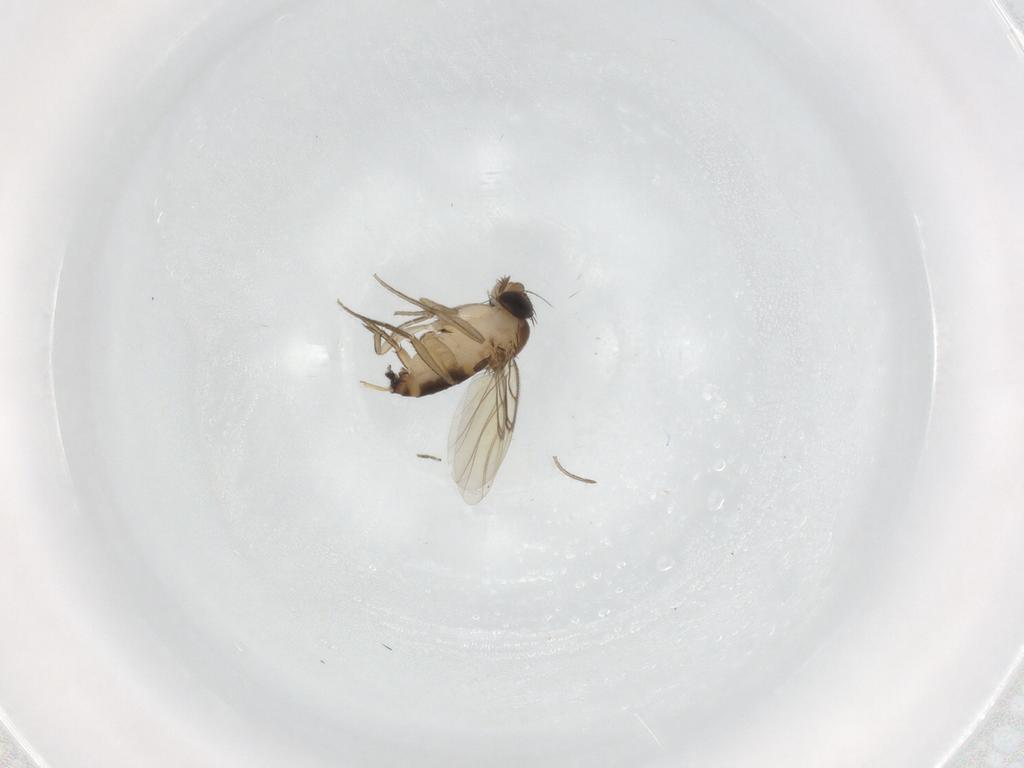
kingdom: Animalia
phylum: Arthropoda
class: Insecta
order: Diptera
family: Phoridae
